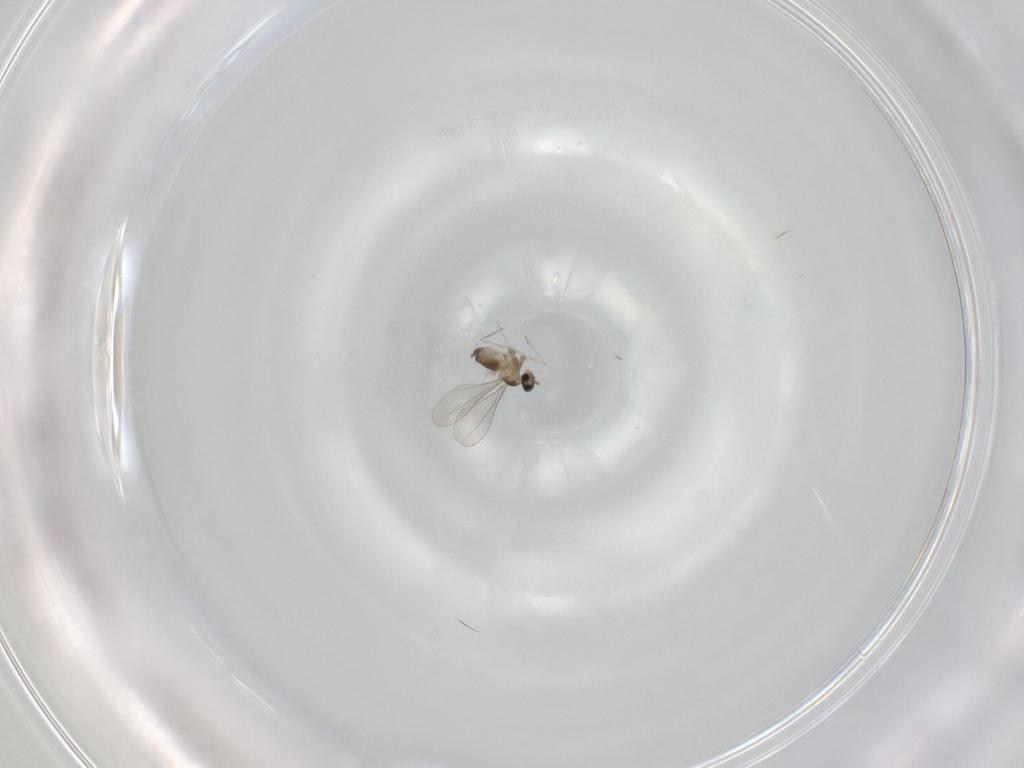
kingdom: Animalia
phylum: Arthropoda
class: Insecta
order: Diptera
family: Cecidomyiidae
